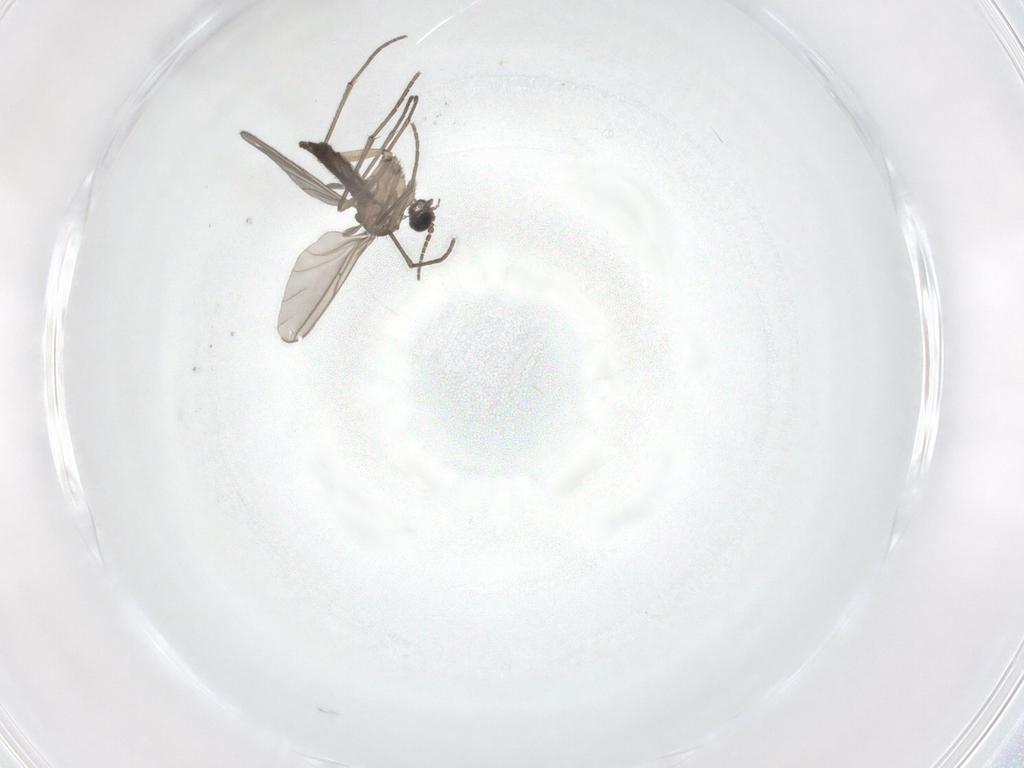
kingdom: Animalia
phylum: Arthropoda
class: Insecta
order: Diptera
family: Sciaridae
